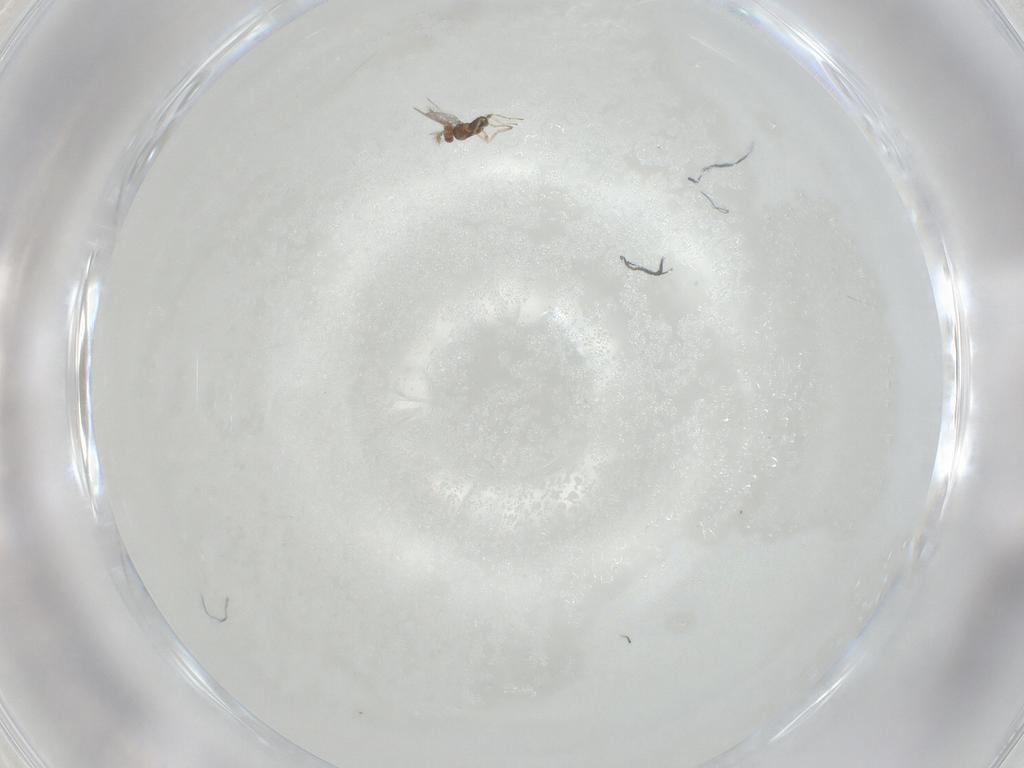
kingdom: Animalia
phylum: Arthropoda
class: Insecta
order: Hymenoptera
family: Trichogrammatidae
